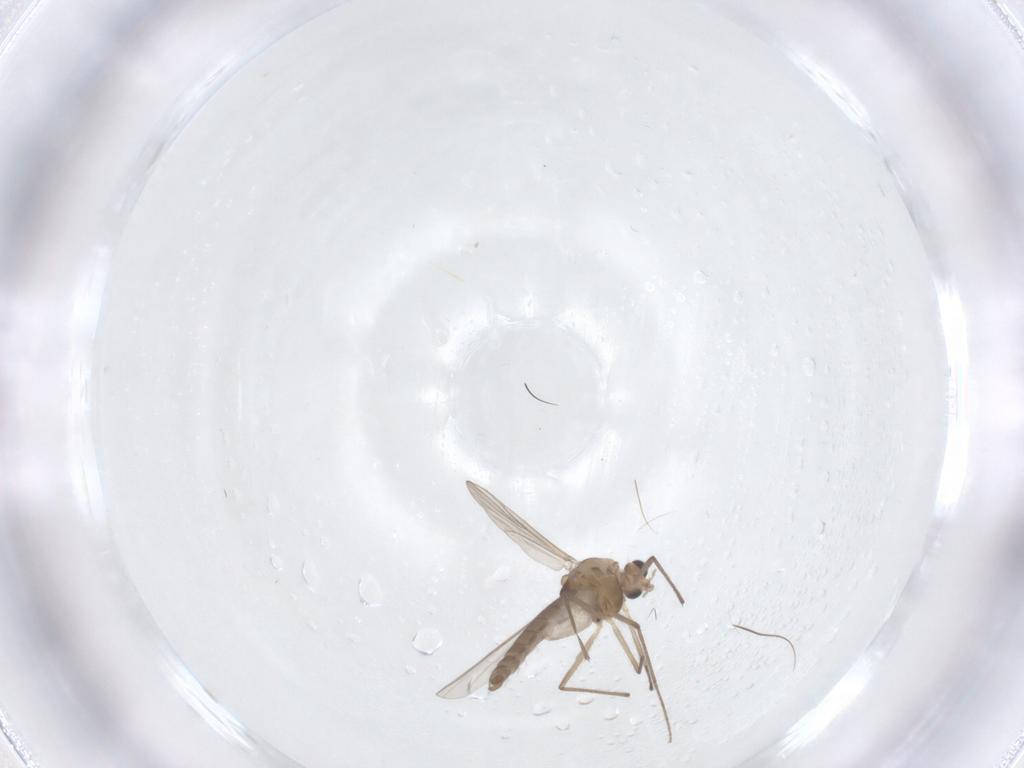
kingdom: Animalia
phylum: Arthropoda
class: Insecta
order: Diptera
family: Chironomidae
